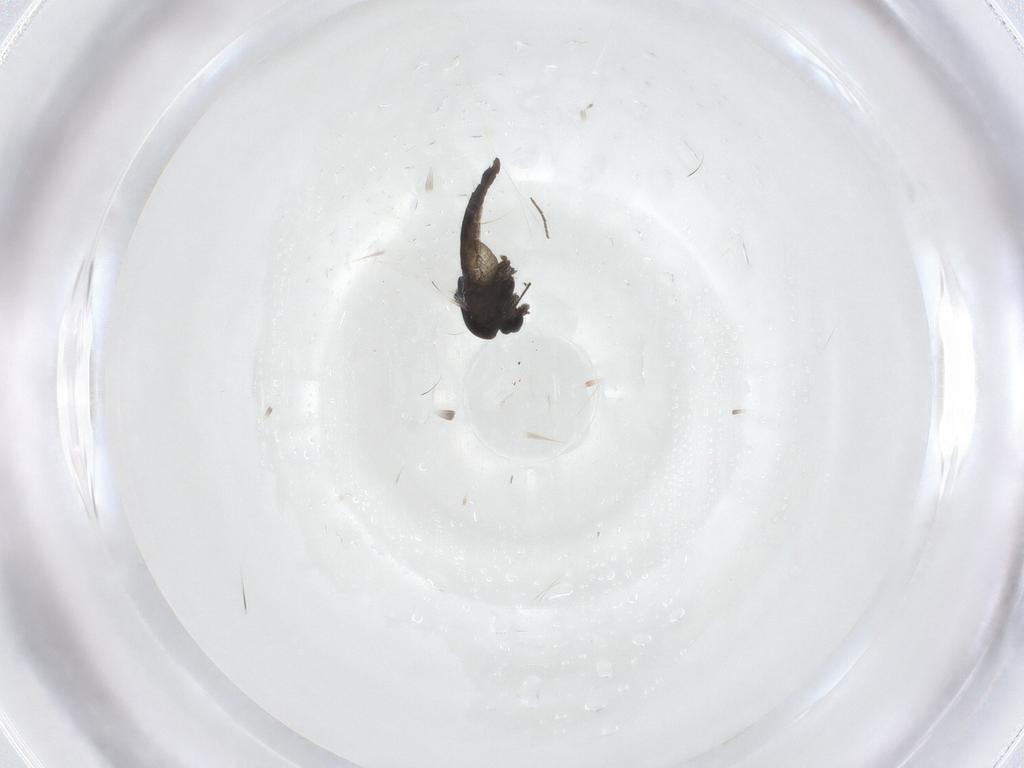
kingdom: Animalia
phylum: Arthropoda
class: Insecta
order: Diptera
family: Chironomidae
